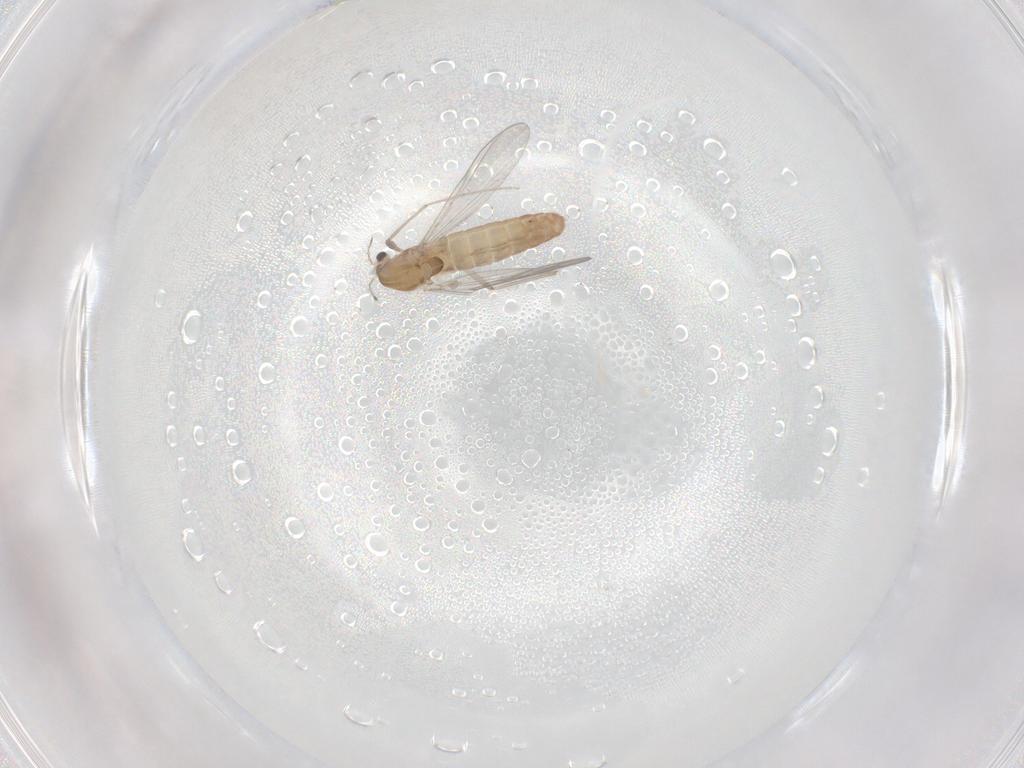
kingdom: Animalia
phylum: Arthropoda
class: Insecta
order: Diptera
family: Chironomidae
